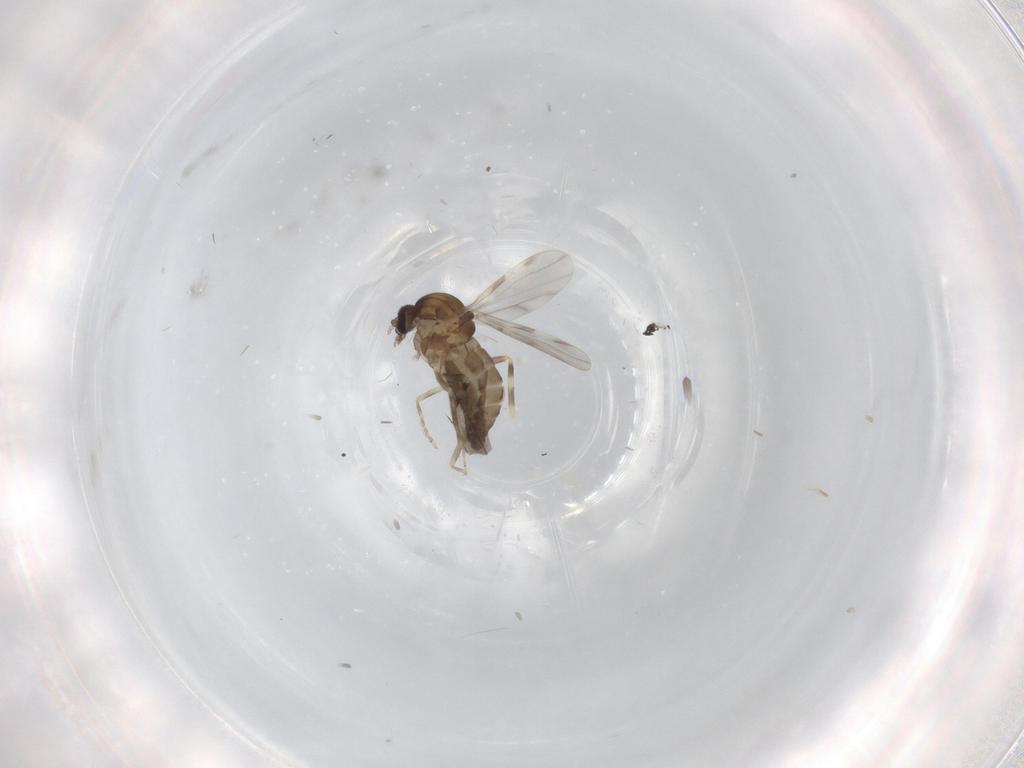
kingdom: Animalia
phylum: Arthropoda
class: Insecta
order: Diptera
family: Ceratopogonidae
